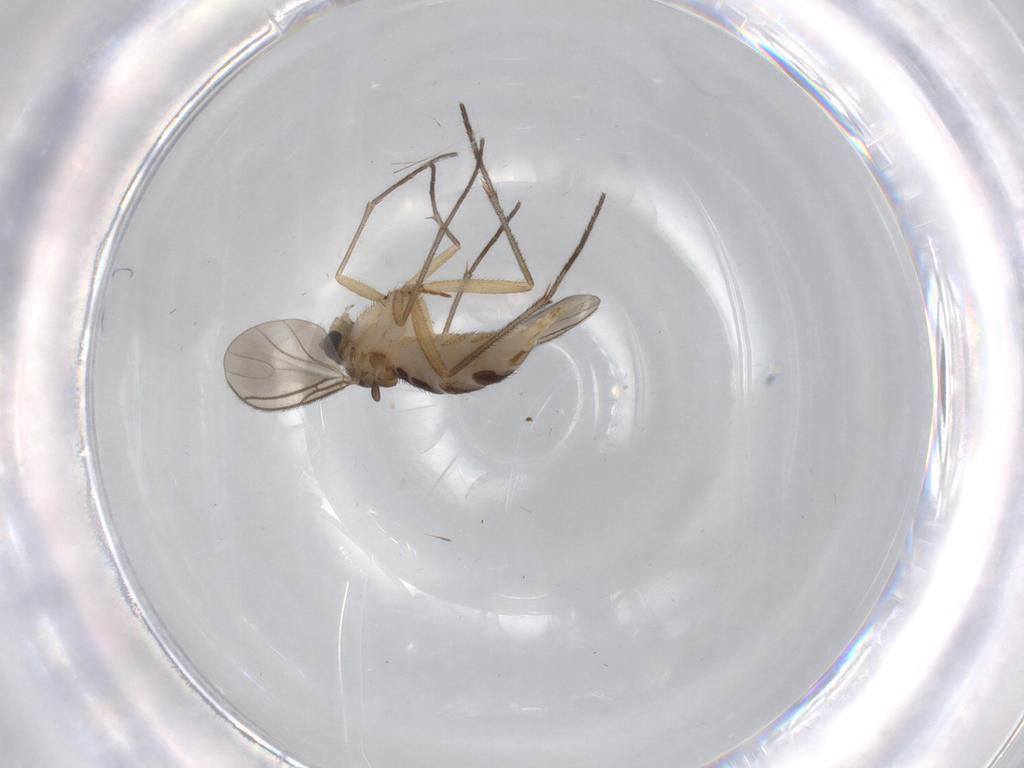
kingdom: Animalia
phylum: Arthropoda
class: Insecta
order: Diptera
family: Sciaridae
